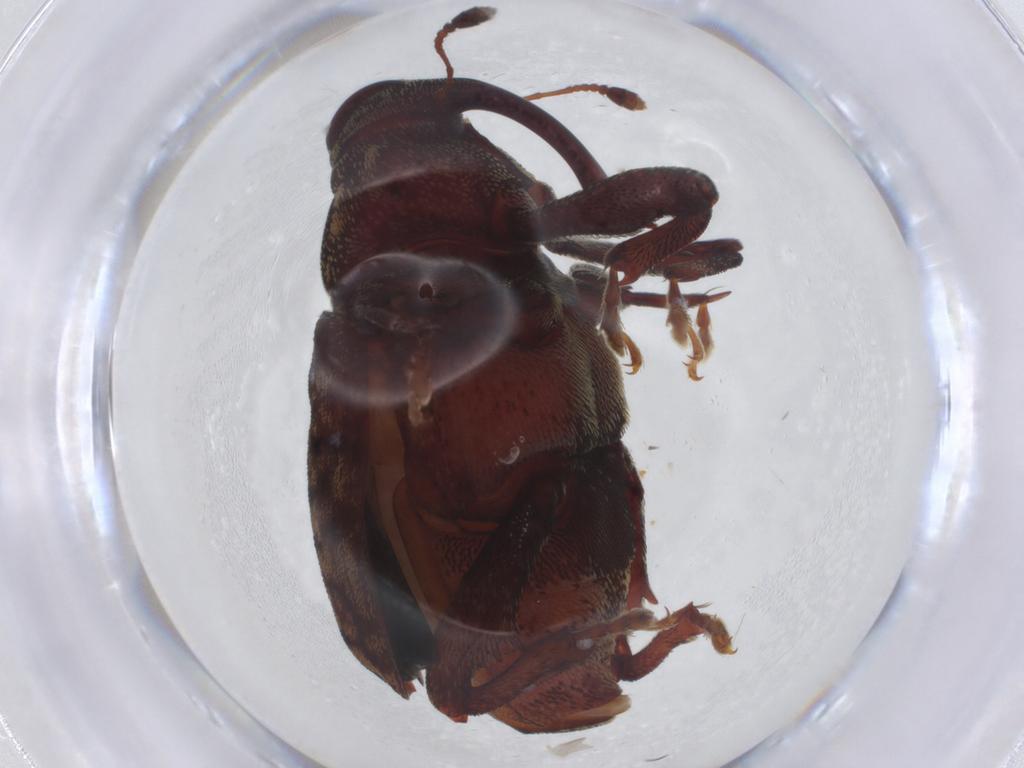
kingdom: Animalia
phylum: Arthropoda
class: Insecta
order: Coleoptera
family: Curculionidae
